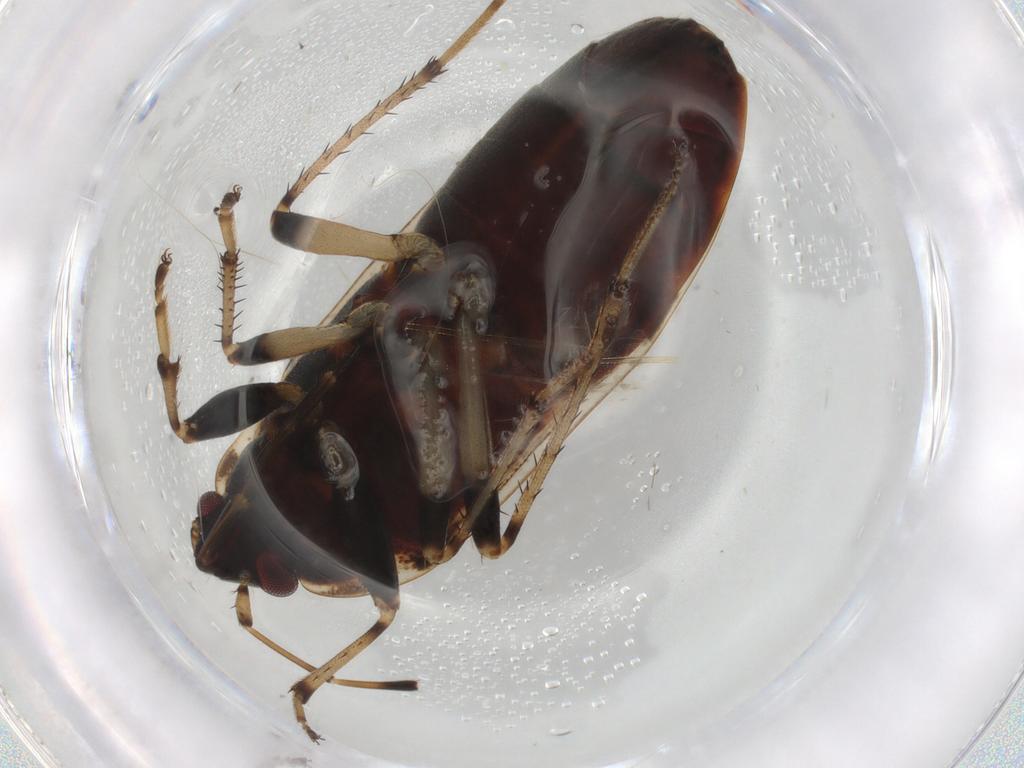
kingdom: Animalia
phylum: Arthropoda
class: Insecta
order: Hemiptera
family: Rhyparochromidae
